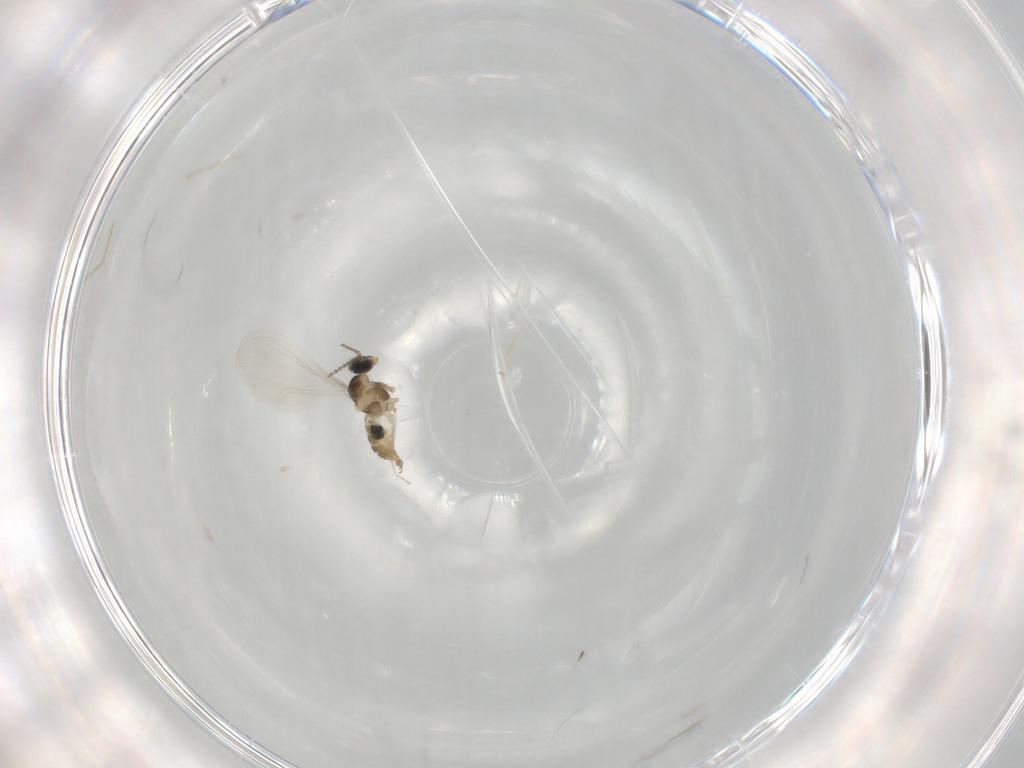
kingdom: Animalia
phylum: Arthropoda
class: Insecta
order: Diptera
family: Cecidomyiidae
